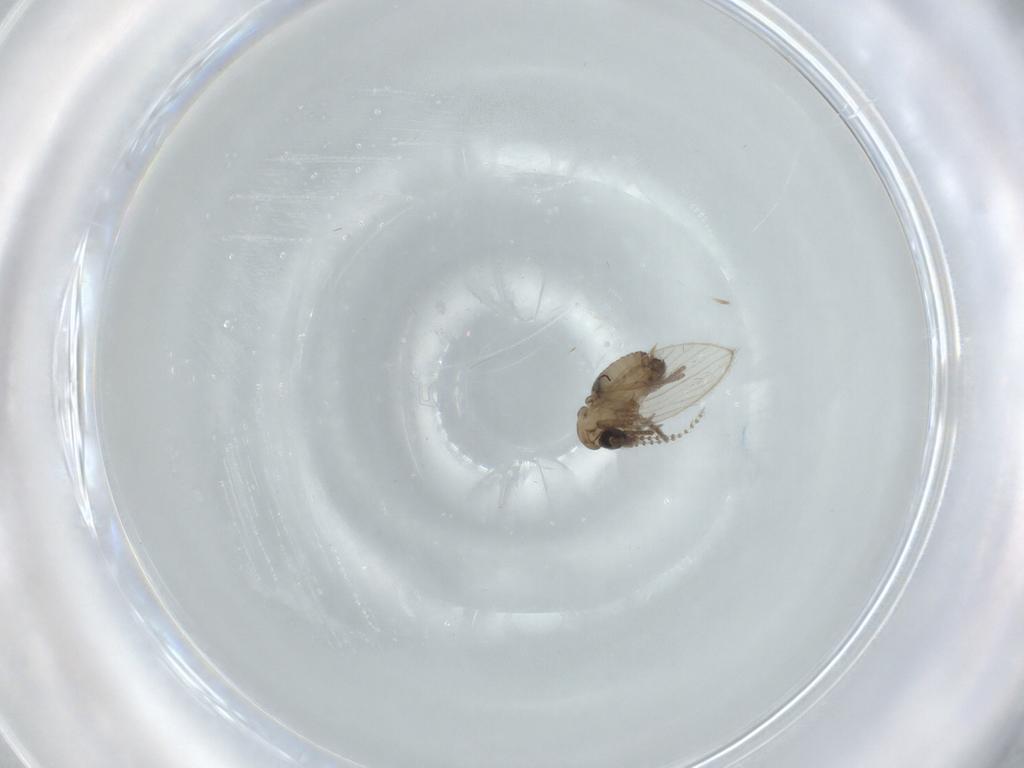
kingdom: Animalia
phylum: Arthropoda
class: Insecta
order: Diptera
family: Psychodidae
